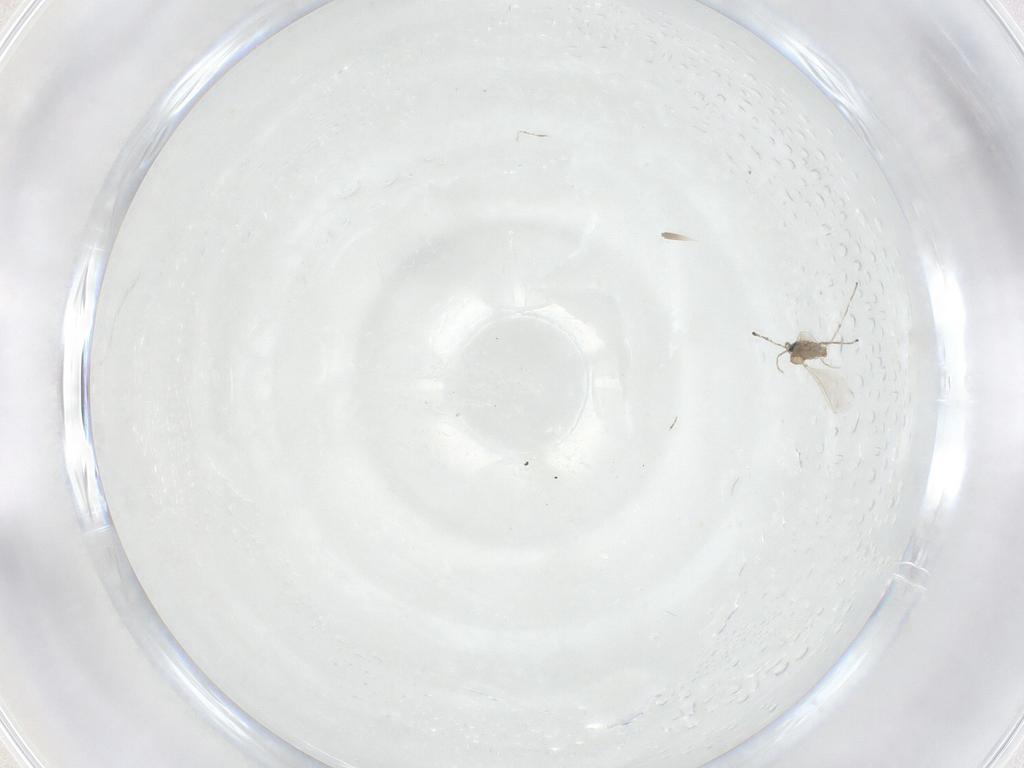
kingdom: Animalia
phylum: Arthropoda
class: Insecta
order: Diptera
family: Cecidomyiidae
